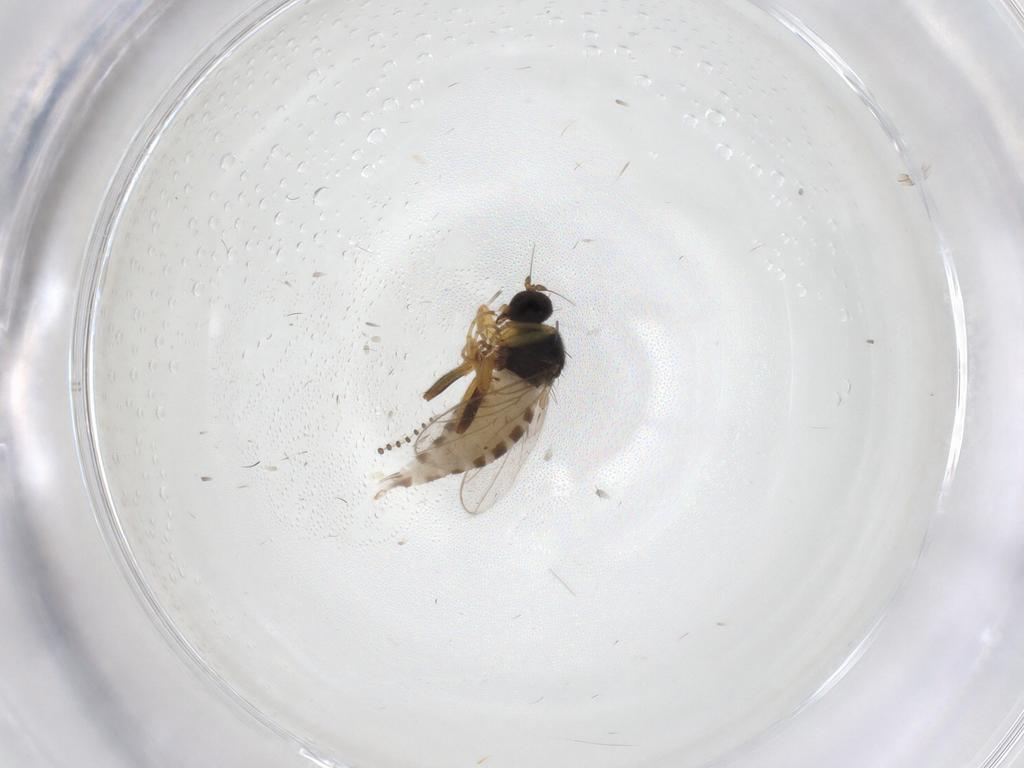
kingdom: Animalia
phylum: Arthropoda
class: Insecta
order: Diptera
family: Hybotidae
